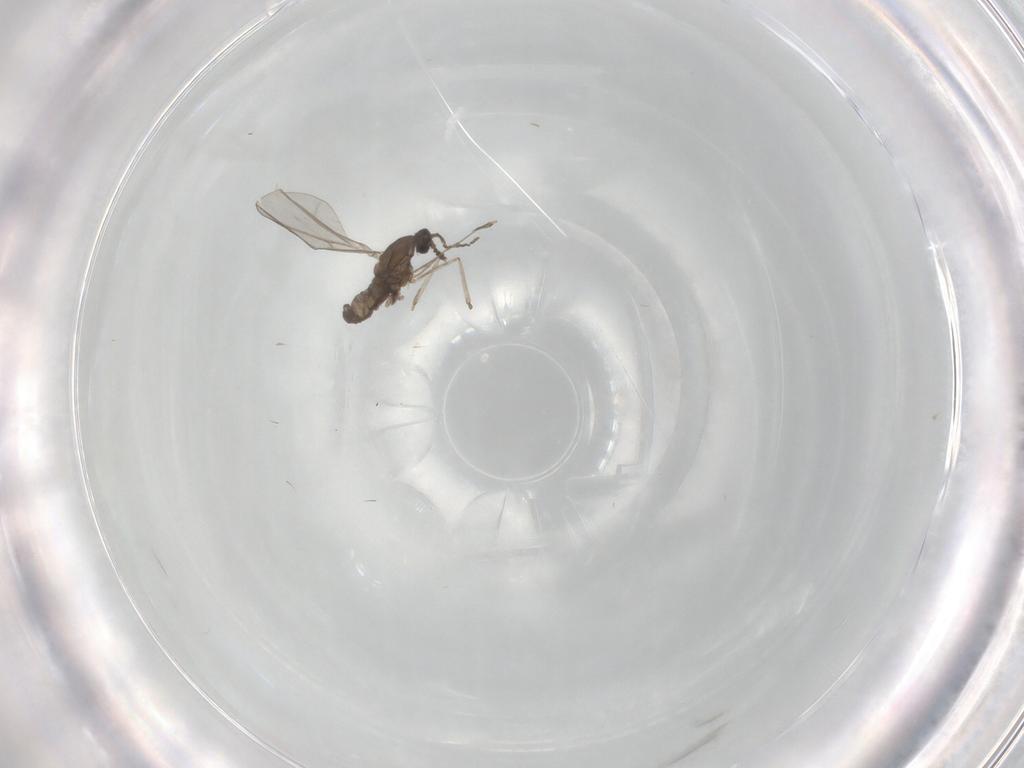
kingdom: Animalia
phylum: Arthropoda
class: Insecta
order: Diptera
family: Cecidomyiidae
